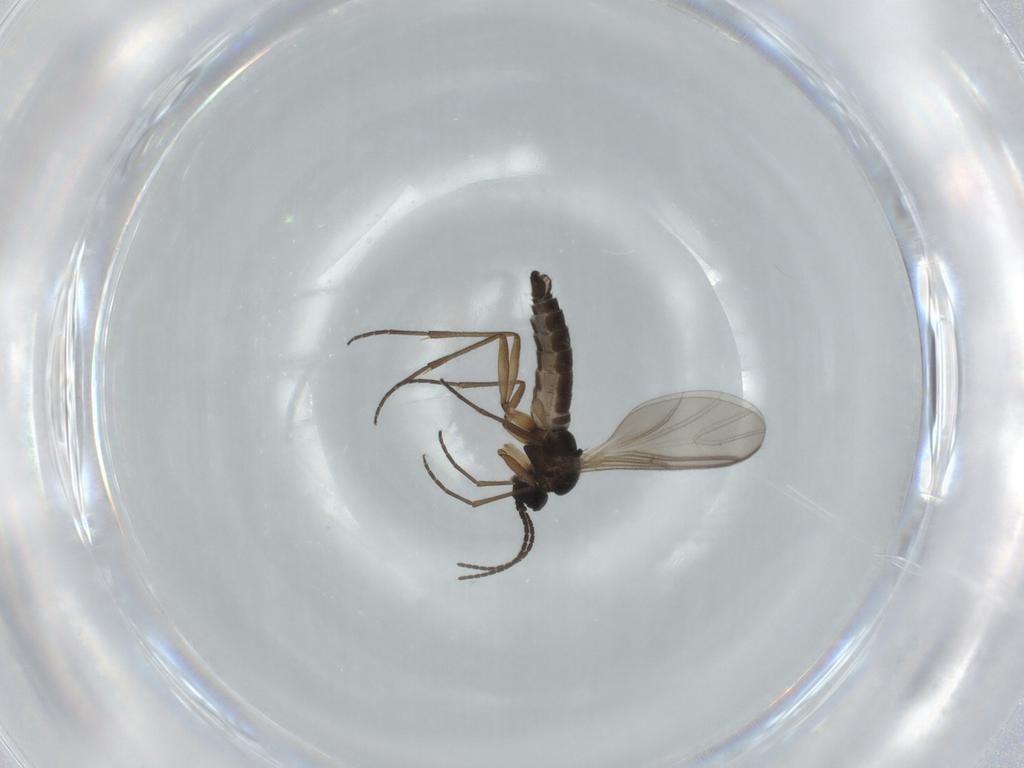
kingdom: Animalia
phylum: Arthropoda
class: Insecta
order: Diptera
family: Sciaridae
